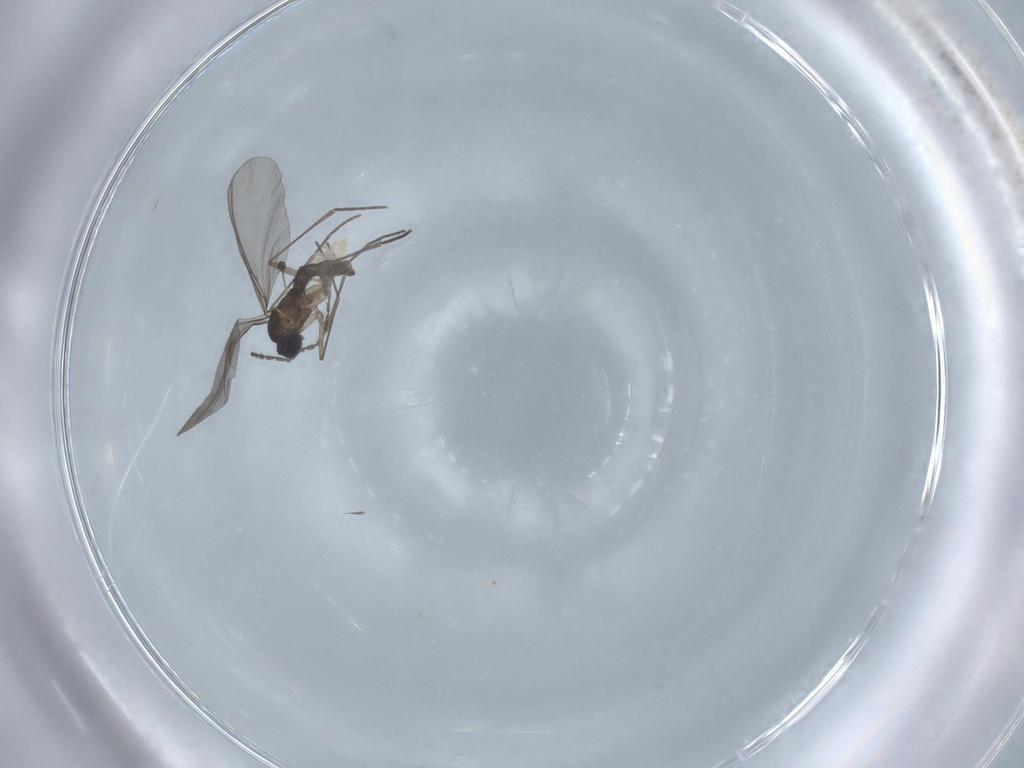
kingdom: Animalia
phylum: Arthropoda
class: Insecta
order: Diptera
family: Sciaridae
